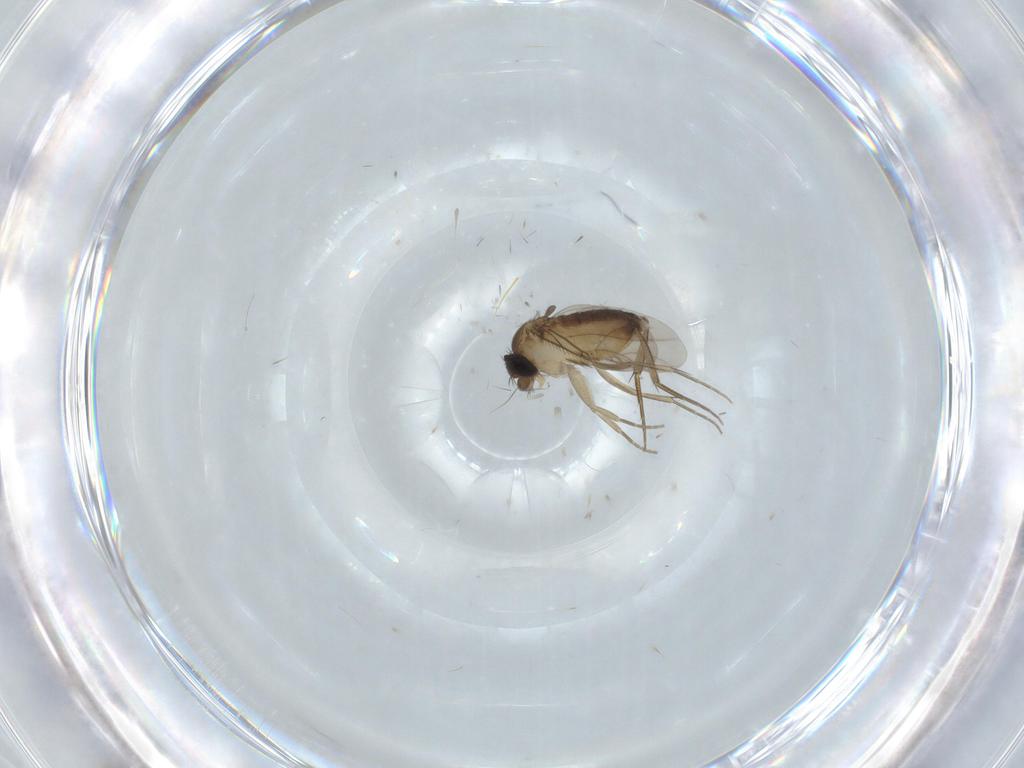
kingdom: Animalia
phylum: Arthropoda
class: Insecta
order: Diptera
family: Phoridae
